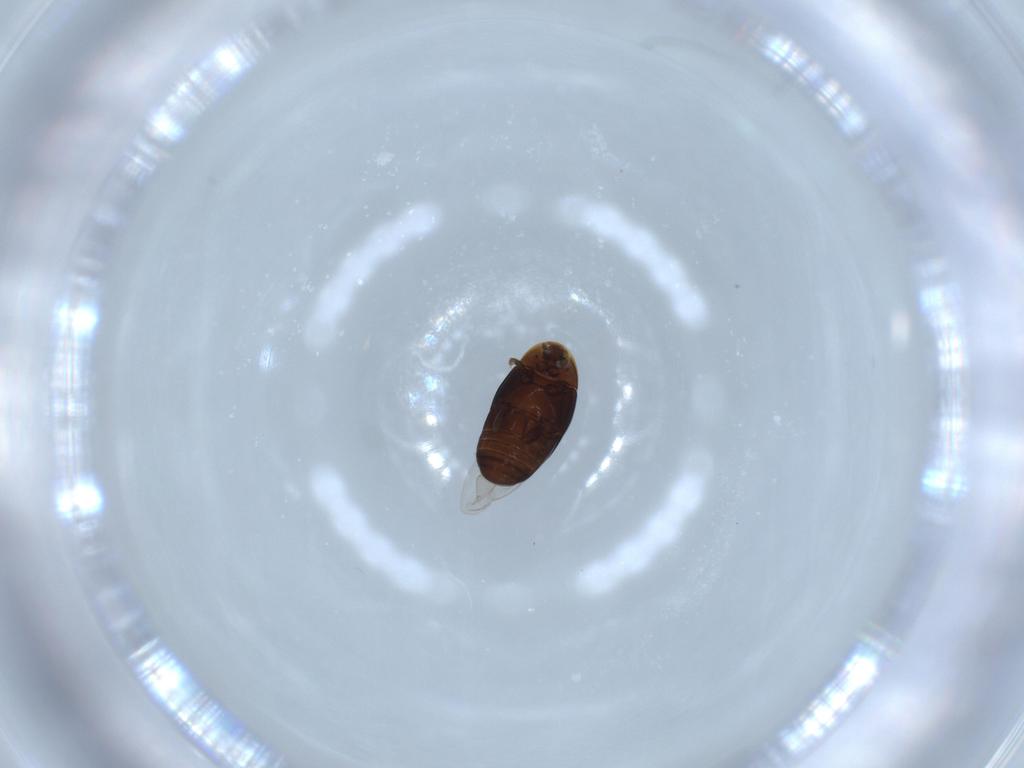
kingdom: Animalia
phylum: Arthropoda
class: Insecta
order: Coleoptera
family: Corylophidae
